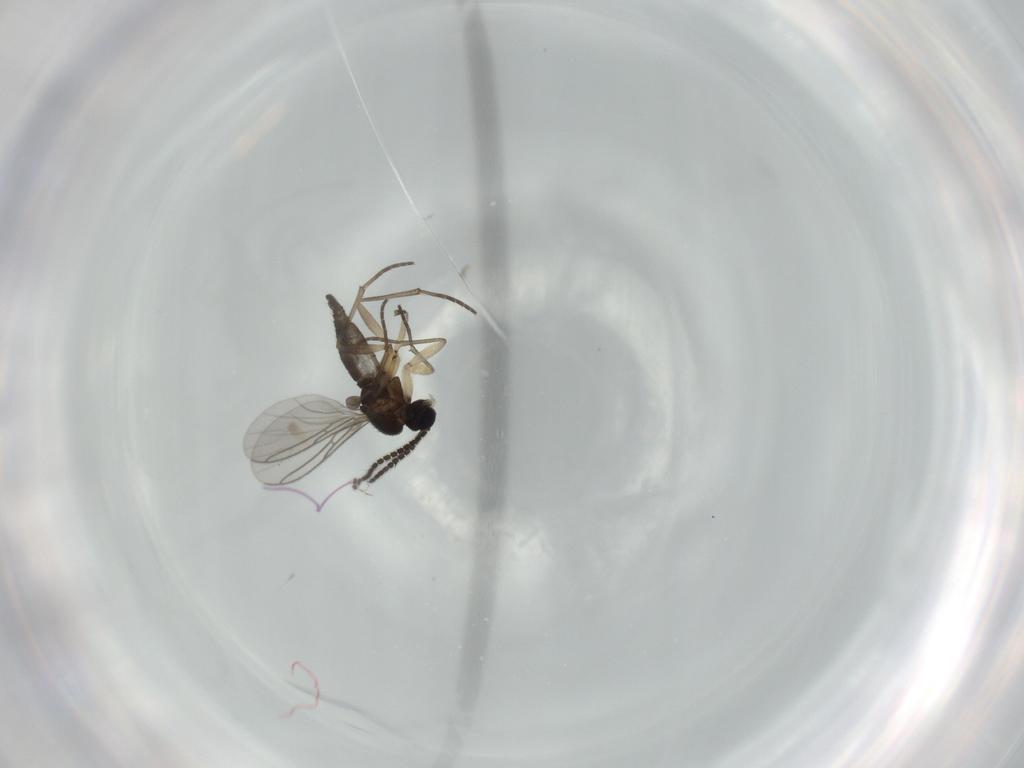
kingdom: Animalia
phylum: Arthropoda
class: Insecta
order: Diptera
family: Sciaridae
